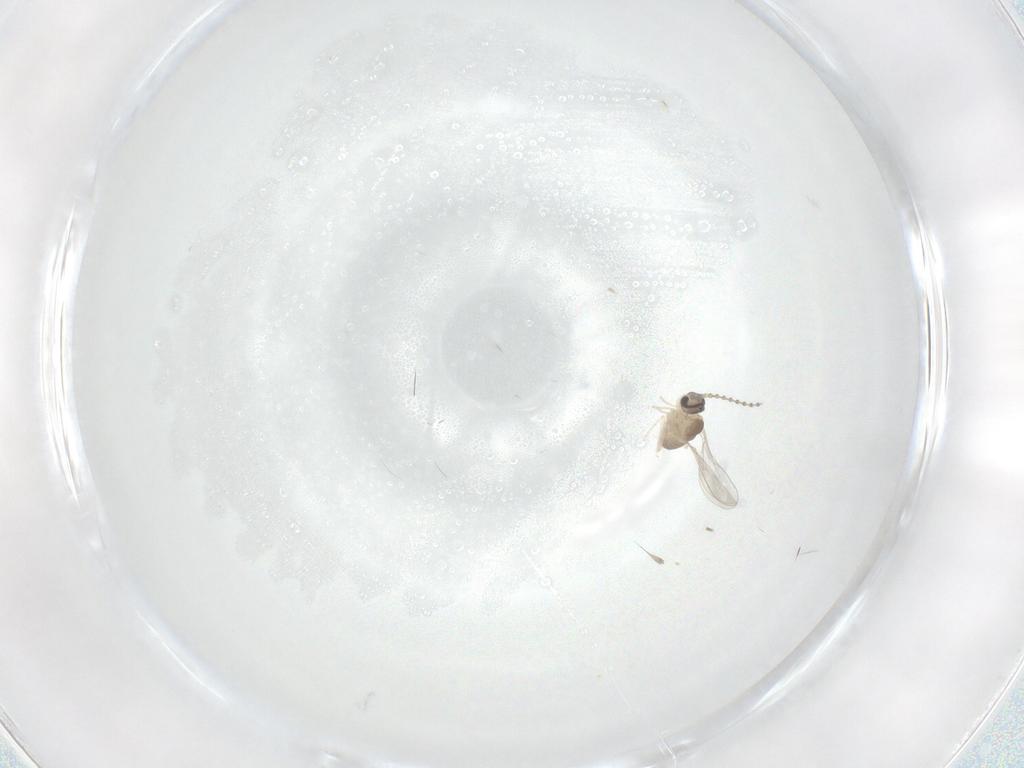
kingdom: Animalia
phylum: Arthropoda
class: Insecta
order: Diptera
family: Cecidomyiidae
